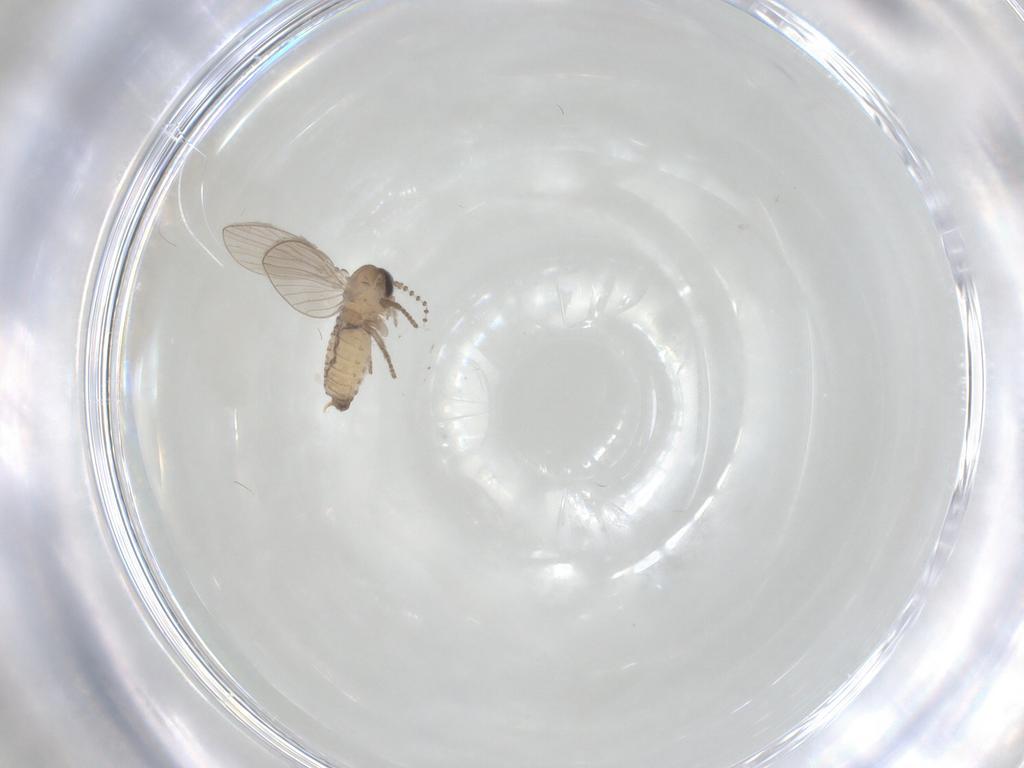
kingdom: Animalia
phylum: Arthropoda
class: Insecta
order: Diptera
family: Psychodidae
